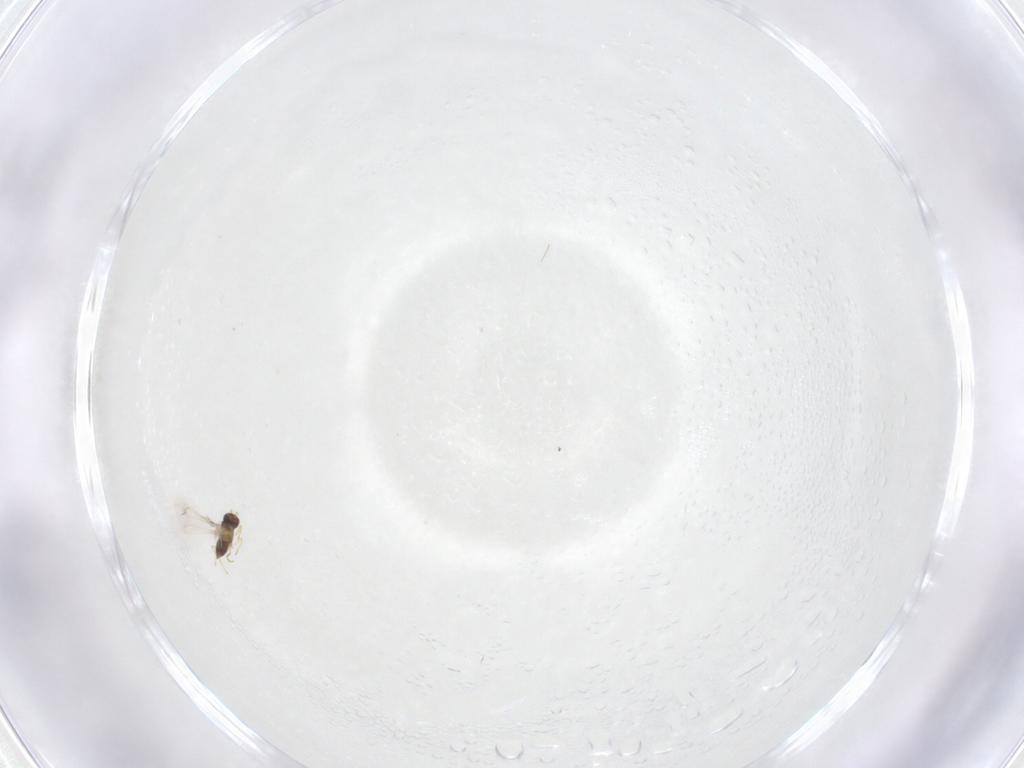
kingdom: Animalia
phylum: Arthropoda
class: Insecta
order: Hymenoptera
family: Mymaridae
